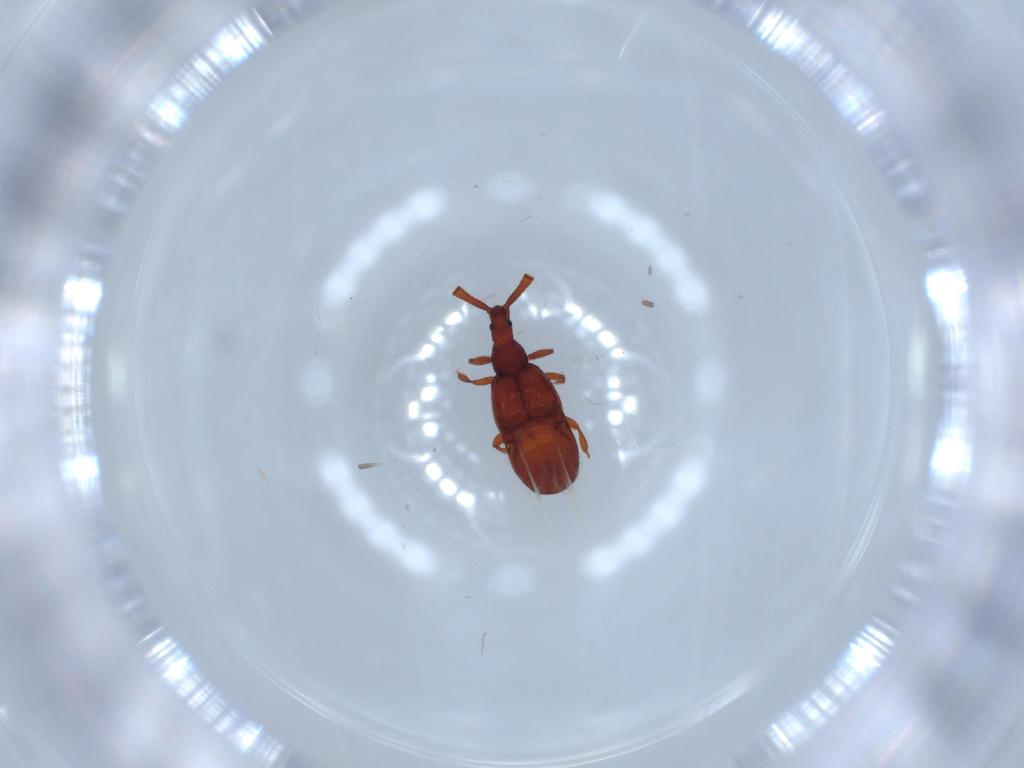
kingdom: Animalia
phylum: Arthropoda
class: Insecta
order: Coleoptera
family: Staphylinidae
